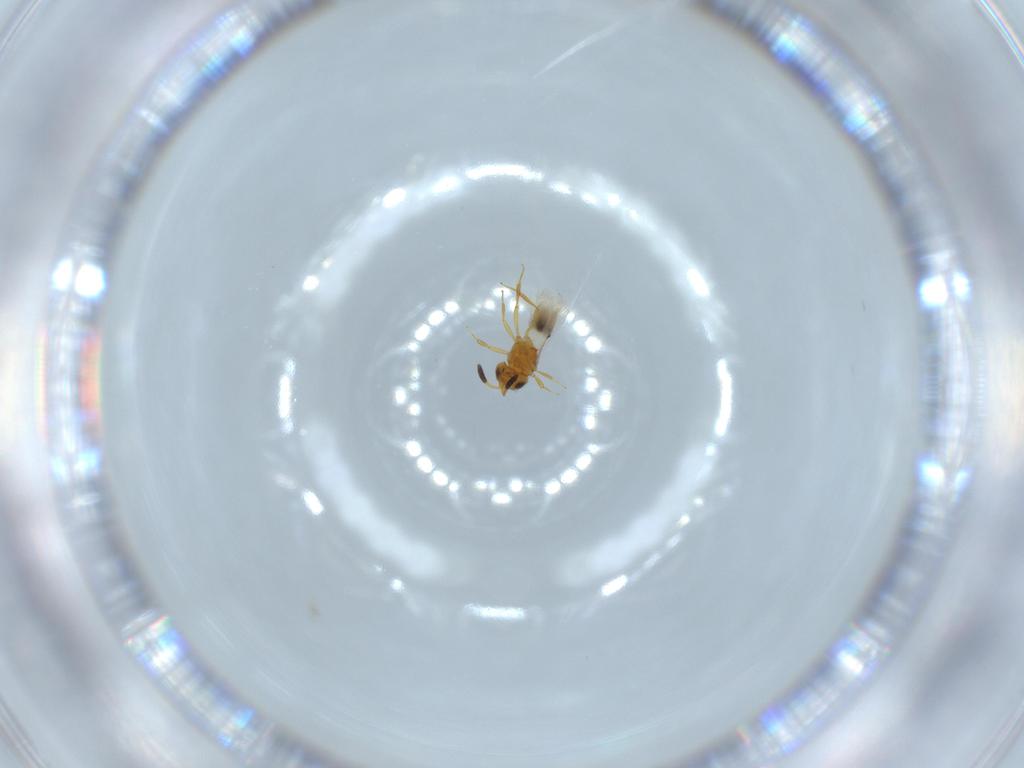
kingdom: Animalia
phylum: Arthropoda
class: Insecta
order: Hymenoptera
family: Scelionidae
